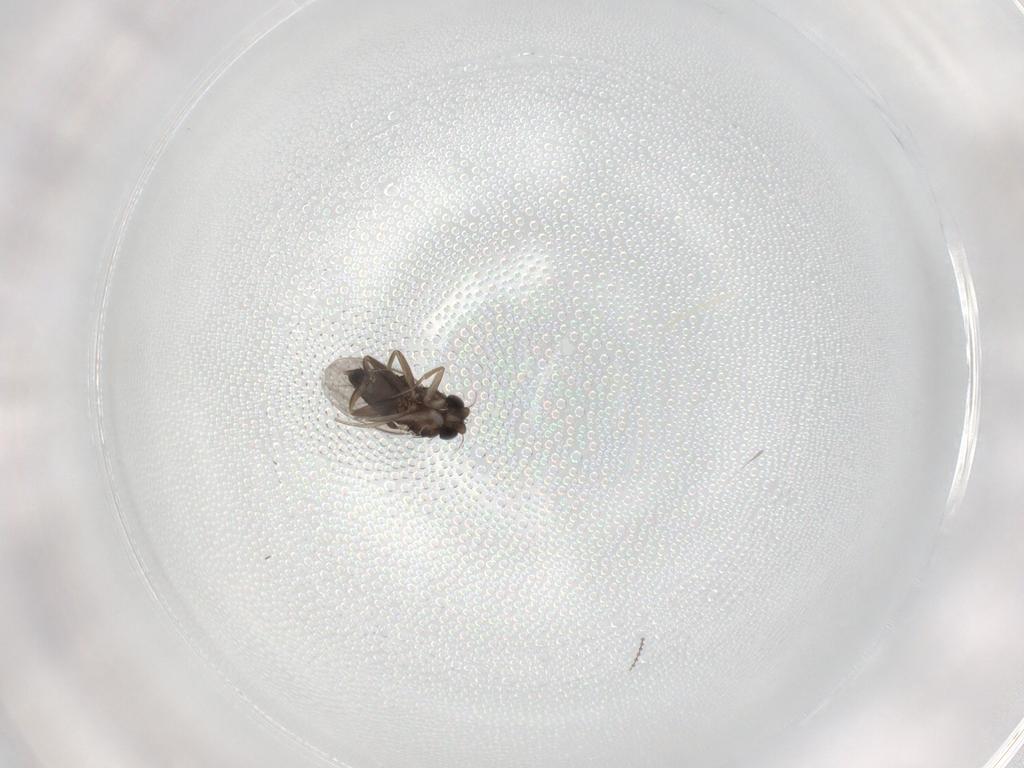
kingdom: Animalia
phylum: Arthropoda
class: Insecta
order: Diptera
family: Phoridae
